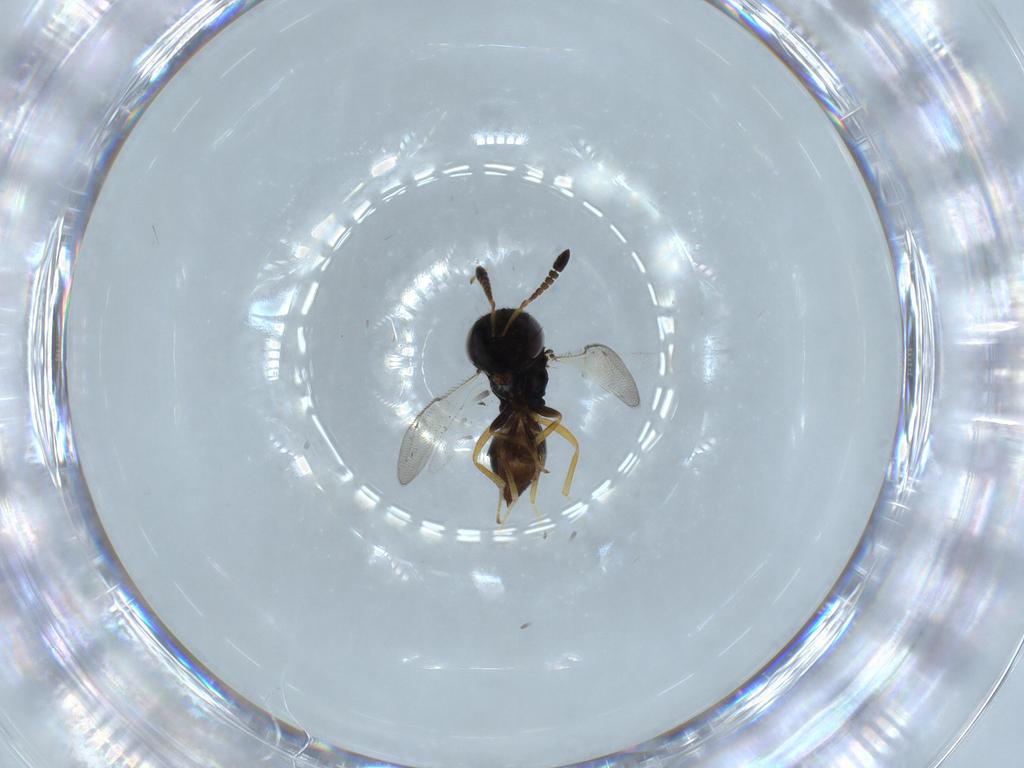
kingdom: Animalia
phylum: Arthropoda
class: Insecta
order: Hymenoptera
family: Pteromalidae
